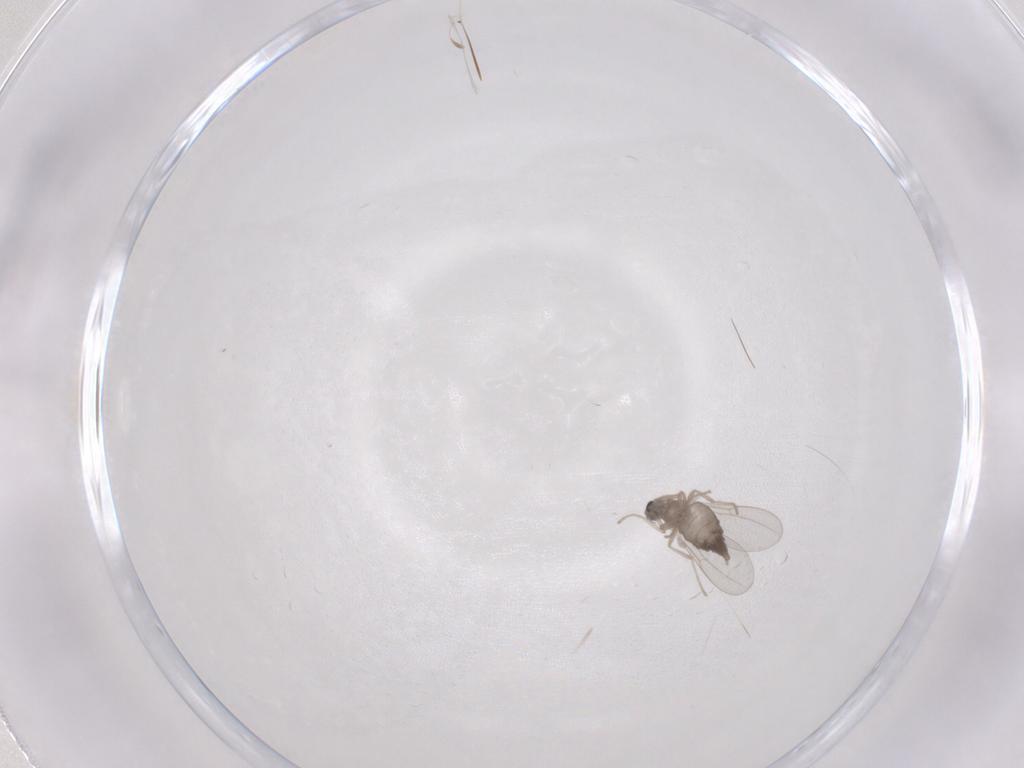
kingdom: Animalia
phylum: Arthropoda
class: Insecta
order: Diptera
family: Cecidomyiidae
